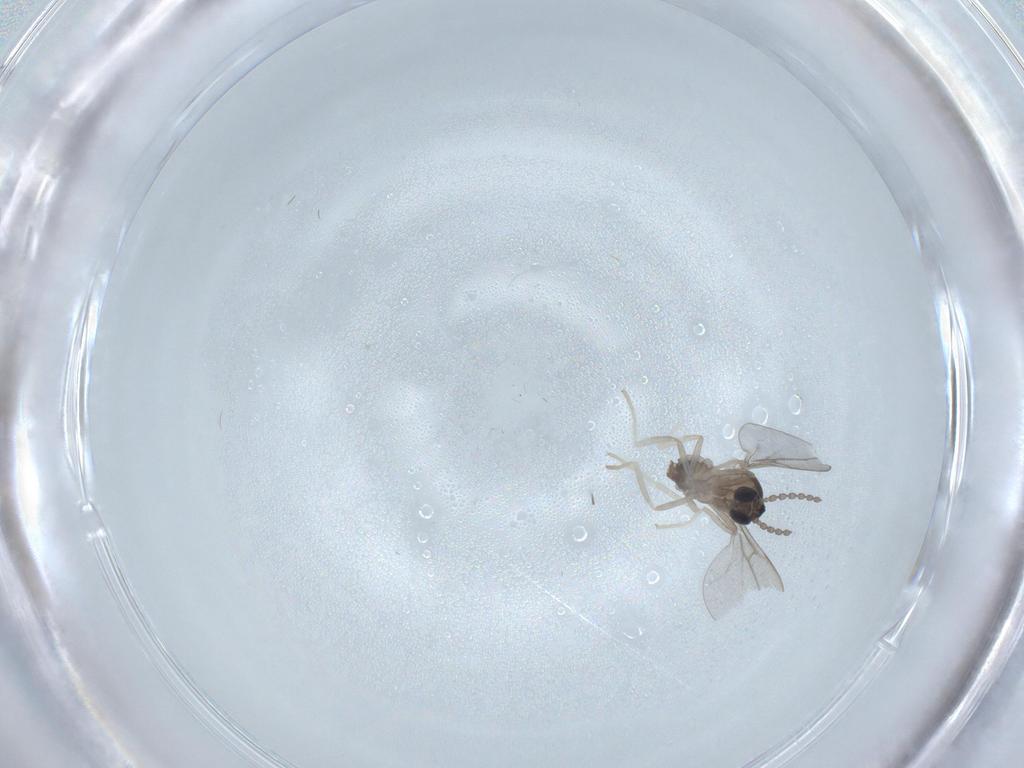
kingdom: Animalia
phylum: Arthropoda
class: Insecta
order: Diptera
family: Cecidomyiidae
